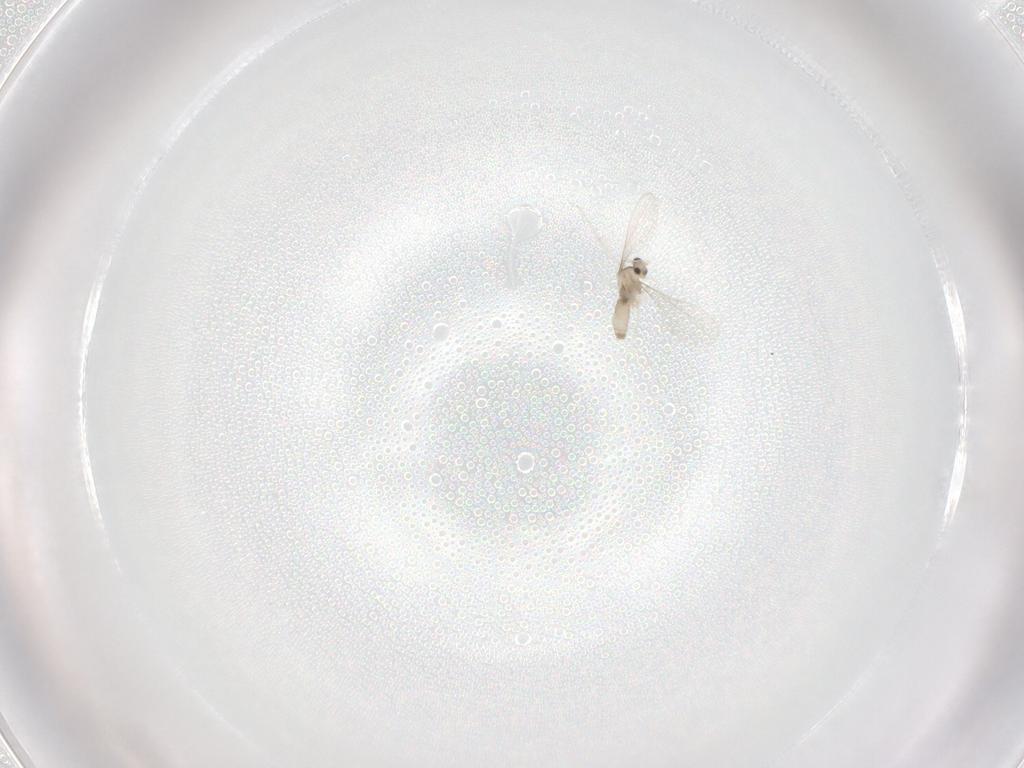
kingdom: Animalia
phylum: Arthropoda
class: Insecta
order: Diptera
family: Cecidomyiidae
